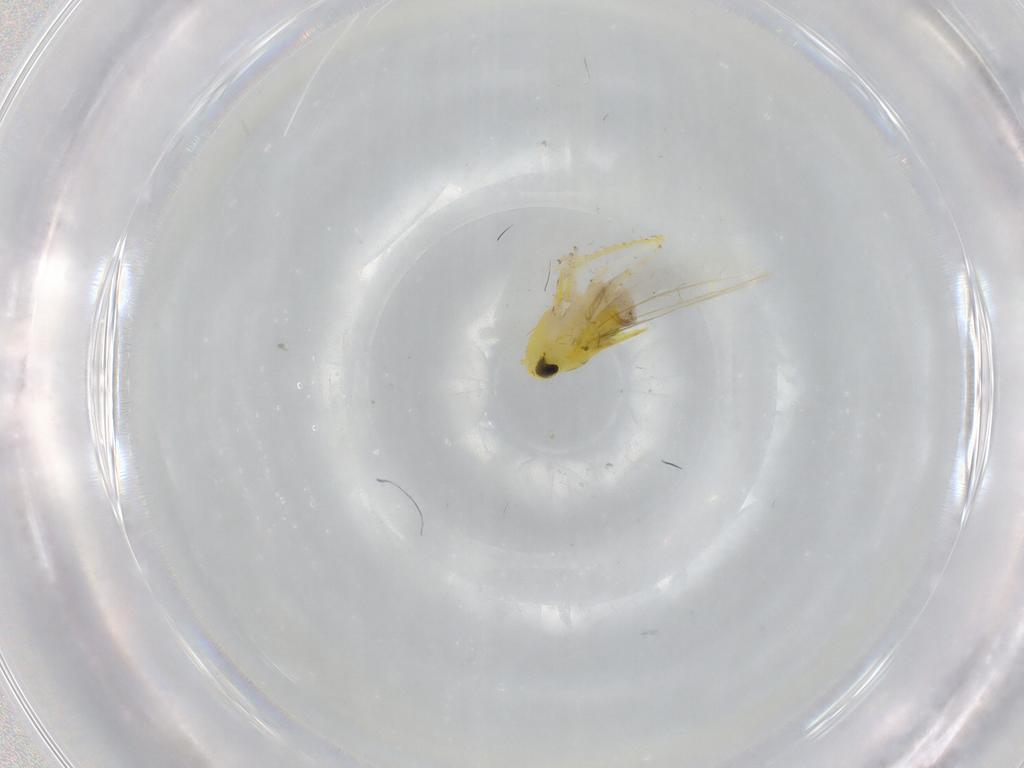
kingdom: Animalia
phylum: Arthropoda
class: Insecta
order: Hemiptera
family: Cicadellidae
